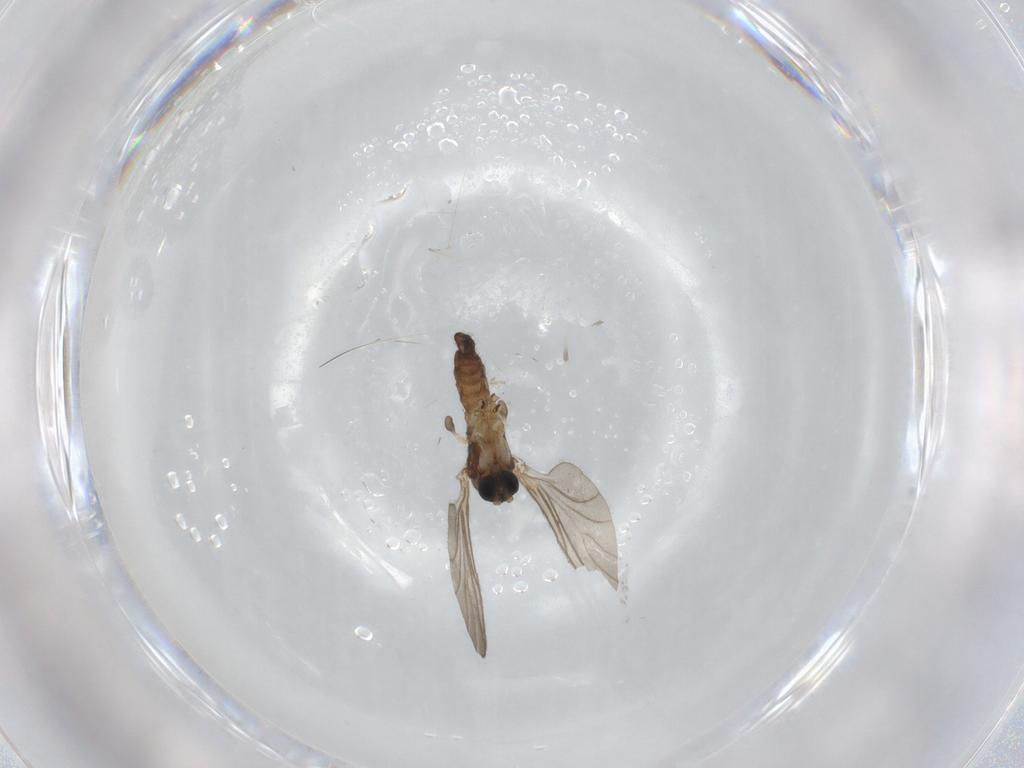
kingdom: Animalia
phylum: Arthropoda
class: Insecta
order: Diptera
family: Sciaridae
